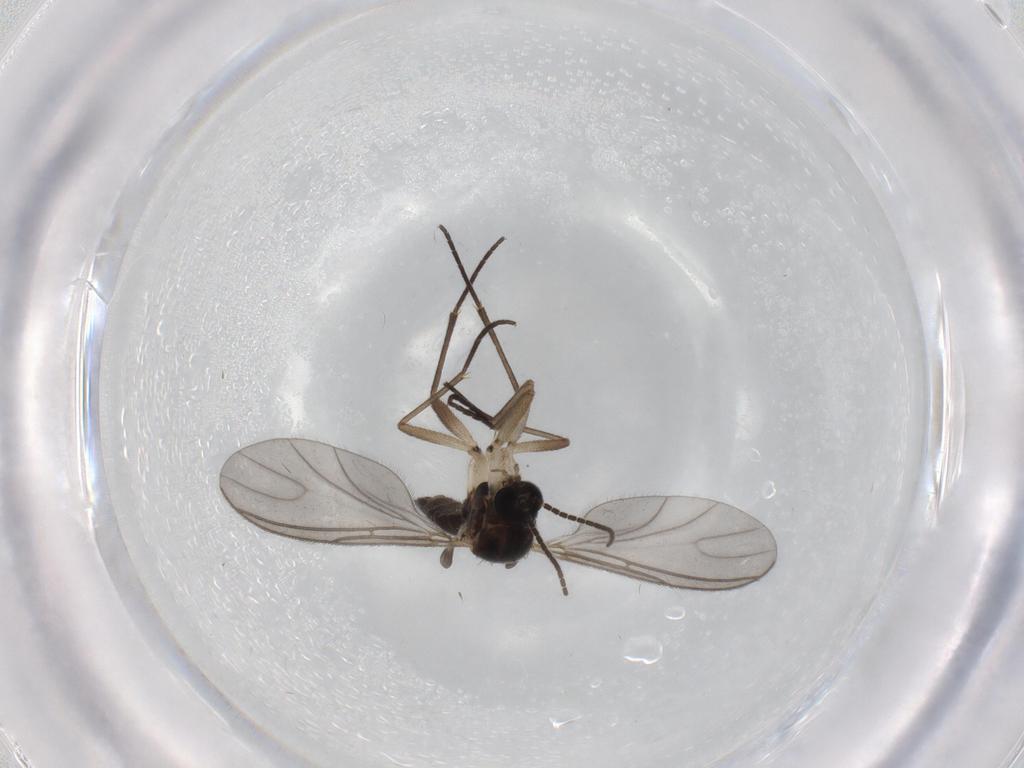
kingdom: Animalia
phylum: Arthropoda
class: Insecta
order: Diptera
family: Sciaridae
